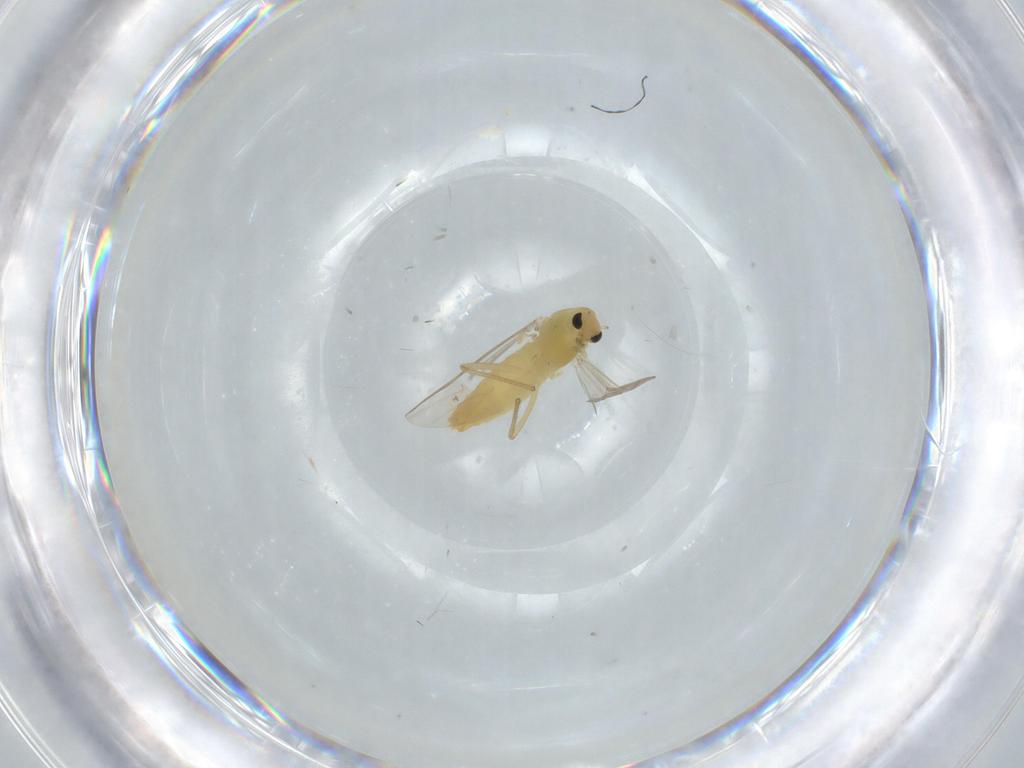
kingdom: Animalia
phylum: Arthropoda
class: Insecta
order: Diptera
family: Chironomidae
